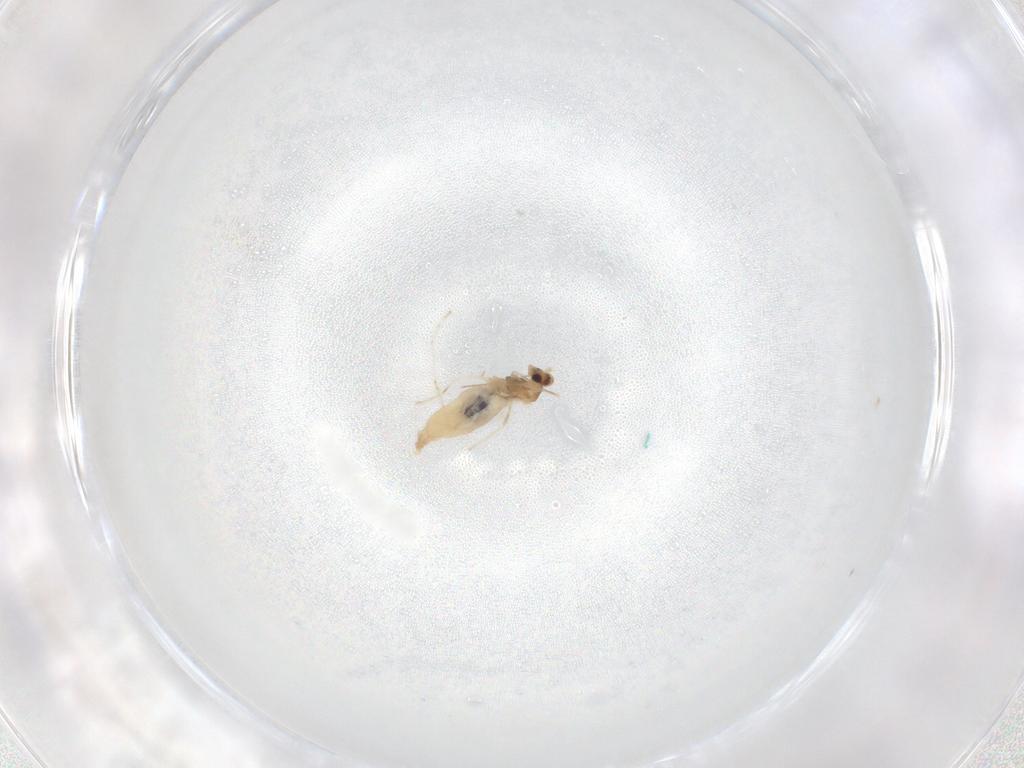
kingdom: Animalia
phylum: Arthropoda
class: Insecta
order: Diptera
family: Cecidomyiidae
